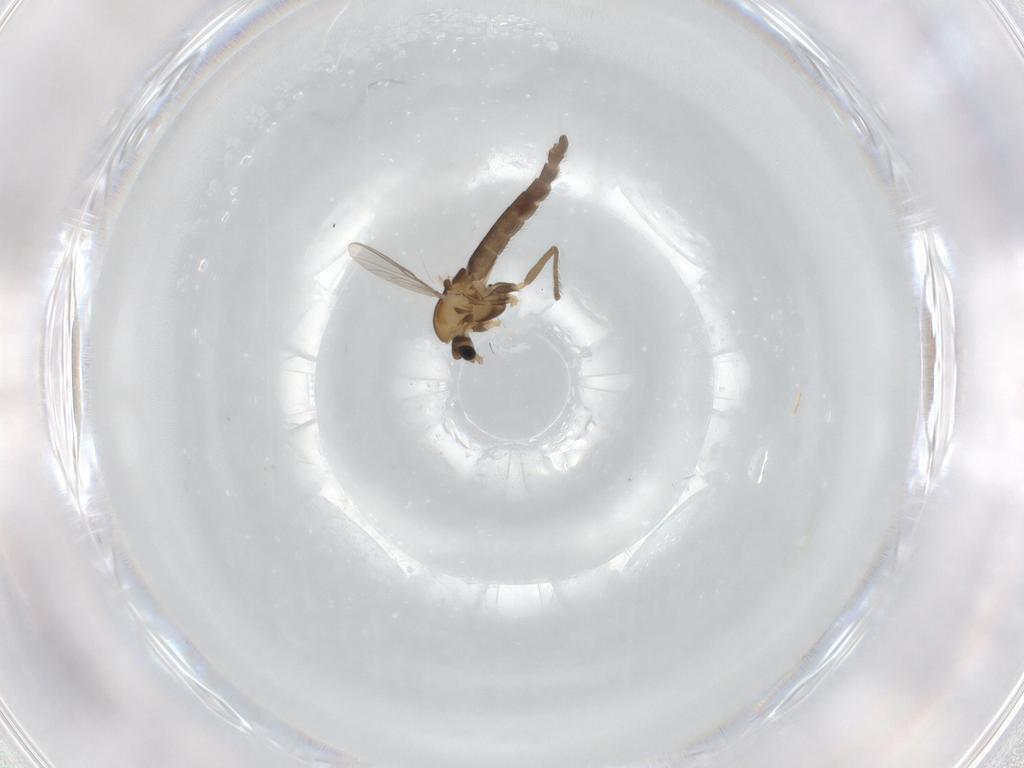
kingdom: Animalia
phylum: Arthropoda
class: Insecta
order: Diptera
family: Chironomidae
